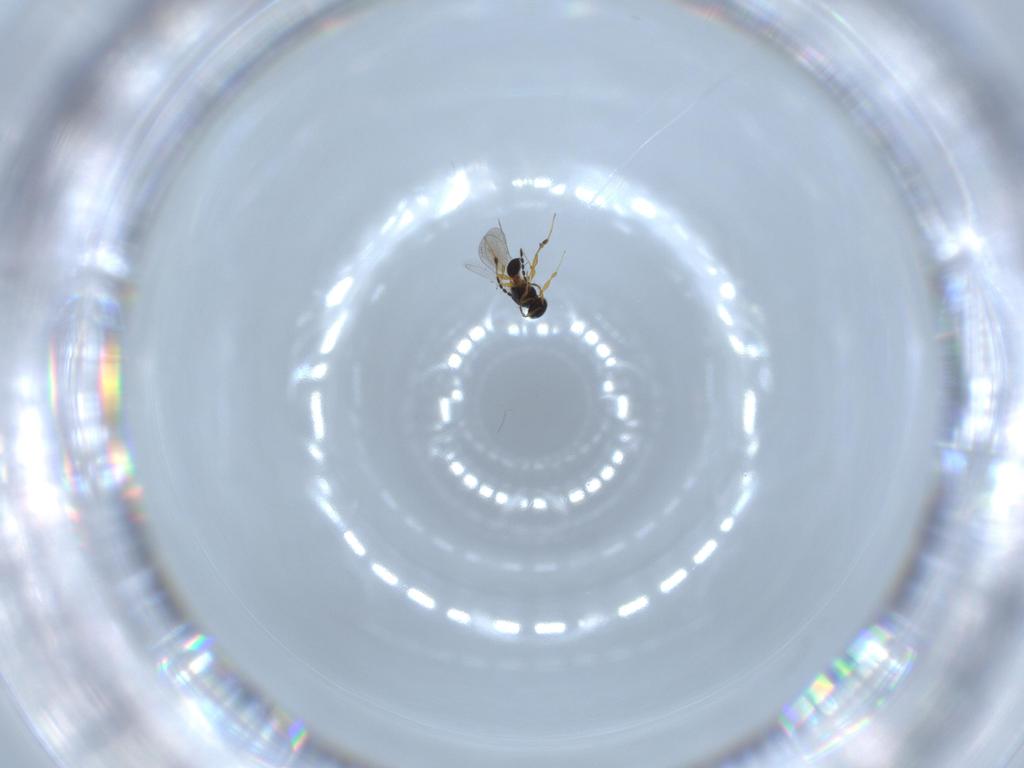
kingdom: Animalia
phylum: Arthropoda
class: Insecta
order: Hymenoptera
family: Platygastridae
